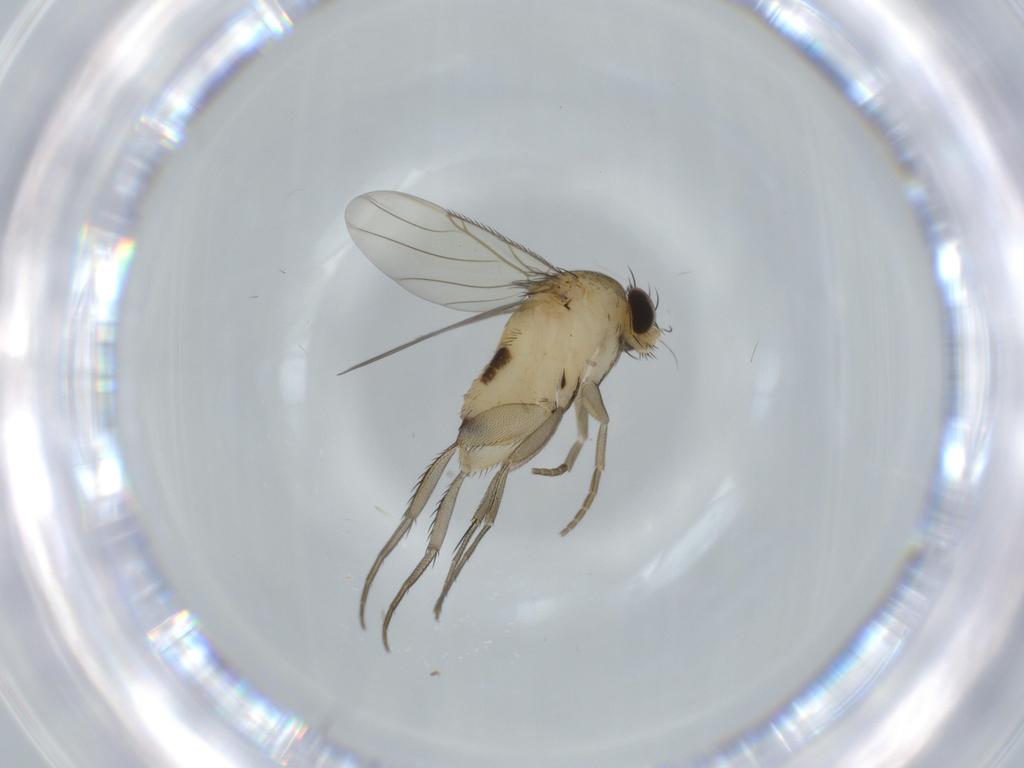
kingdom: Animalia
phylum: Arthropoda
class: Insecta
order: Diptera
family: Phoridae
